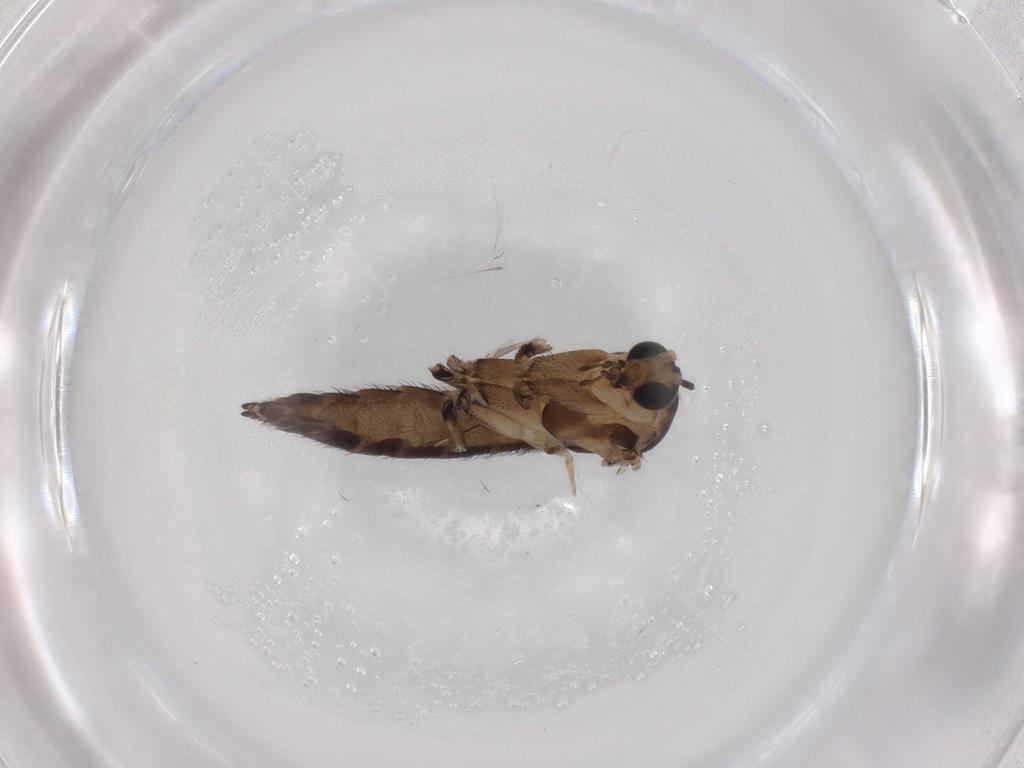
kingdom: Animalia
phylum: Arthropoda
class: Insecta
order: Diptera
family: Sciaridae
